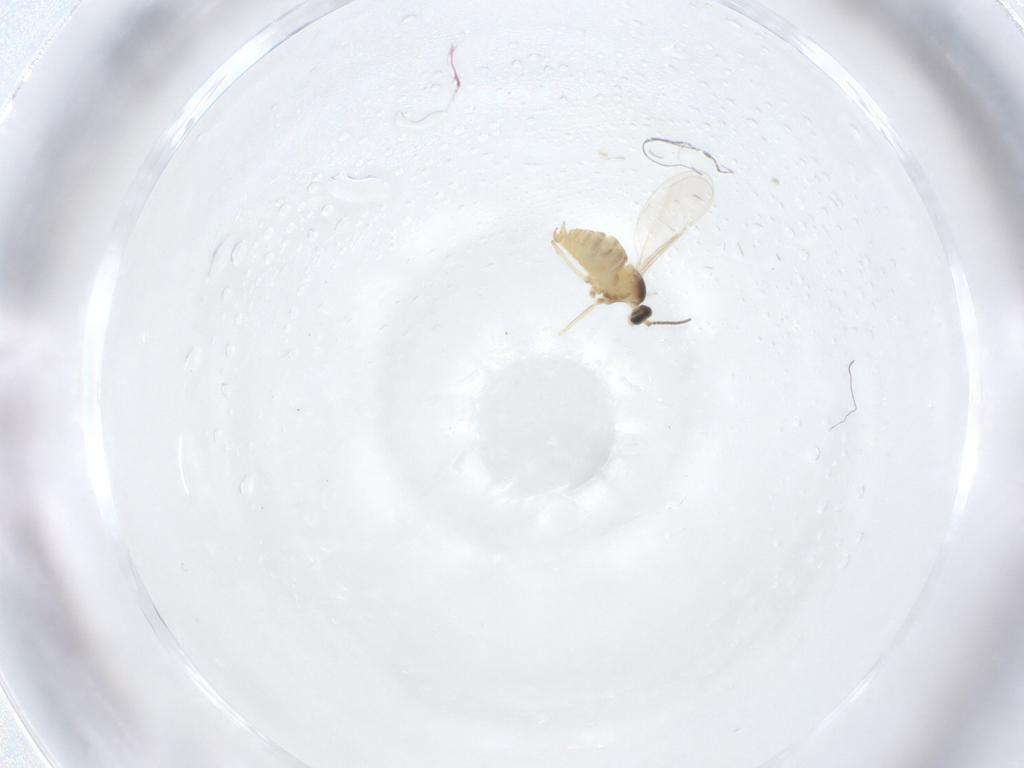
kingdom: Animalia
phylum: Arthropoda
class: Insecta
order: Diptera
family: Cecidomyiidae
